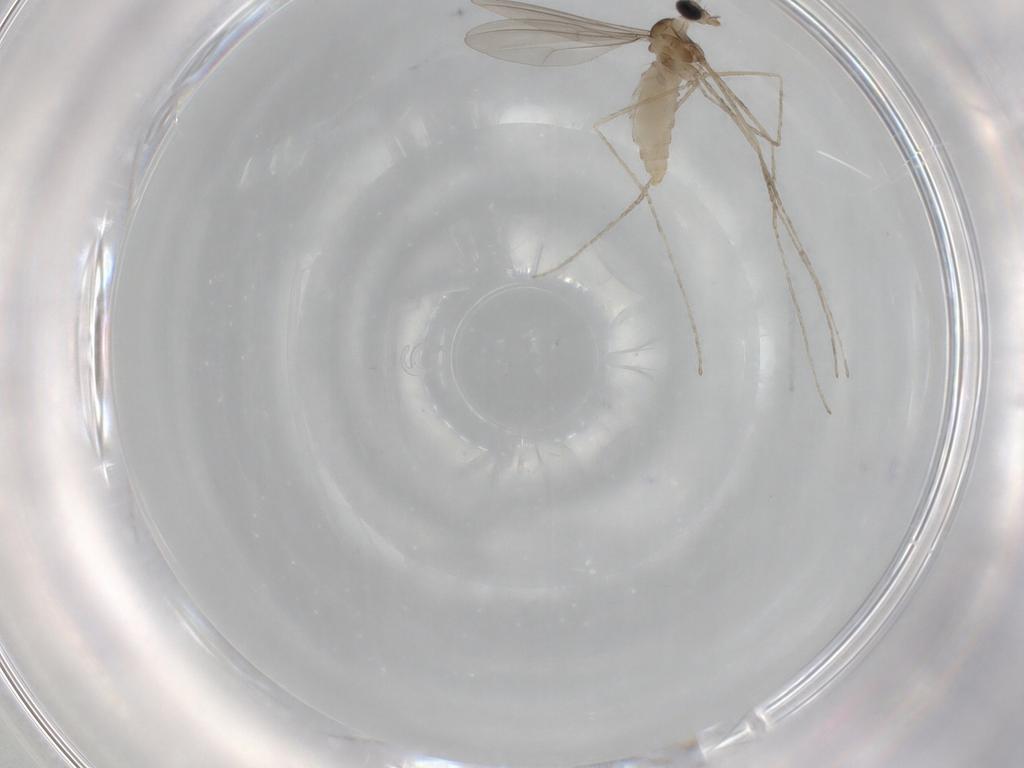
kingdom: Animalia
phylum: Arthropoda
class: Insecta
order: Diptera
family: Cecidomyiidae
